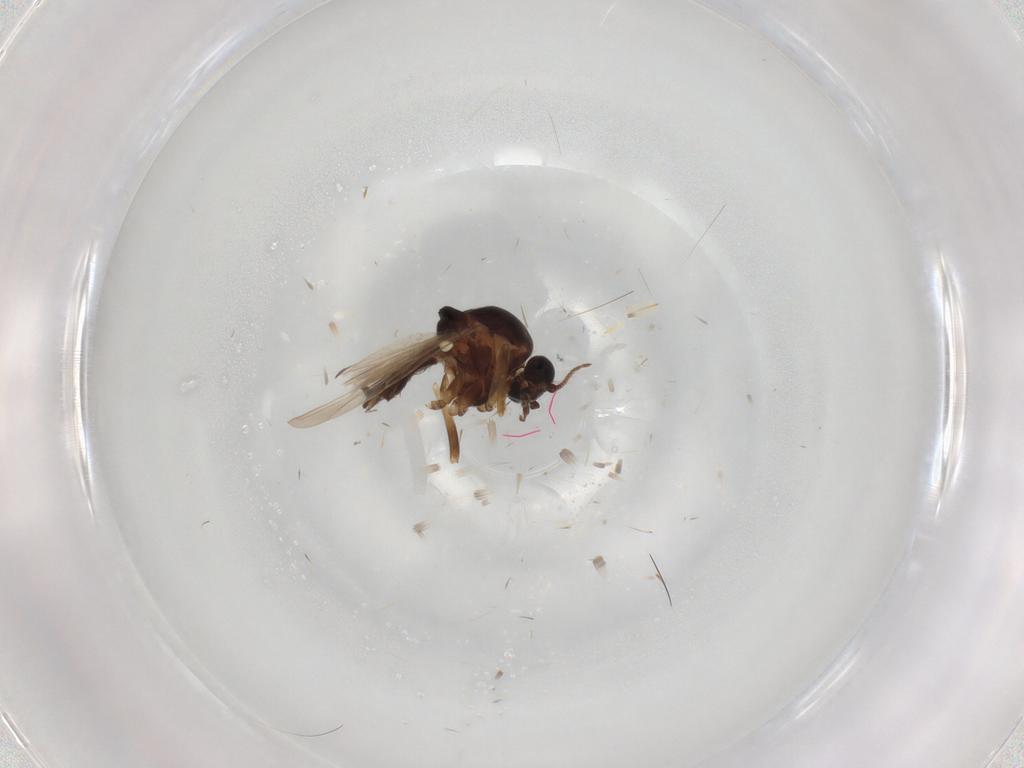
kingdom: Animalia
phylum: Arthropoda
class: Insecta
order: Diptera
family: Ceratopogonidae
